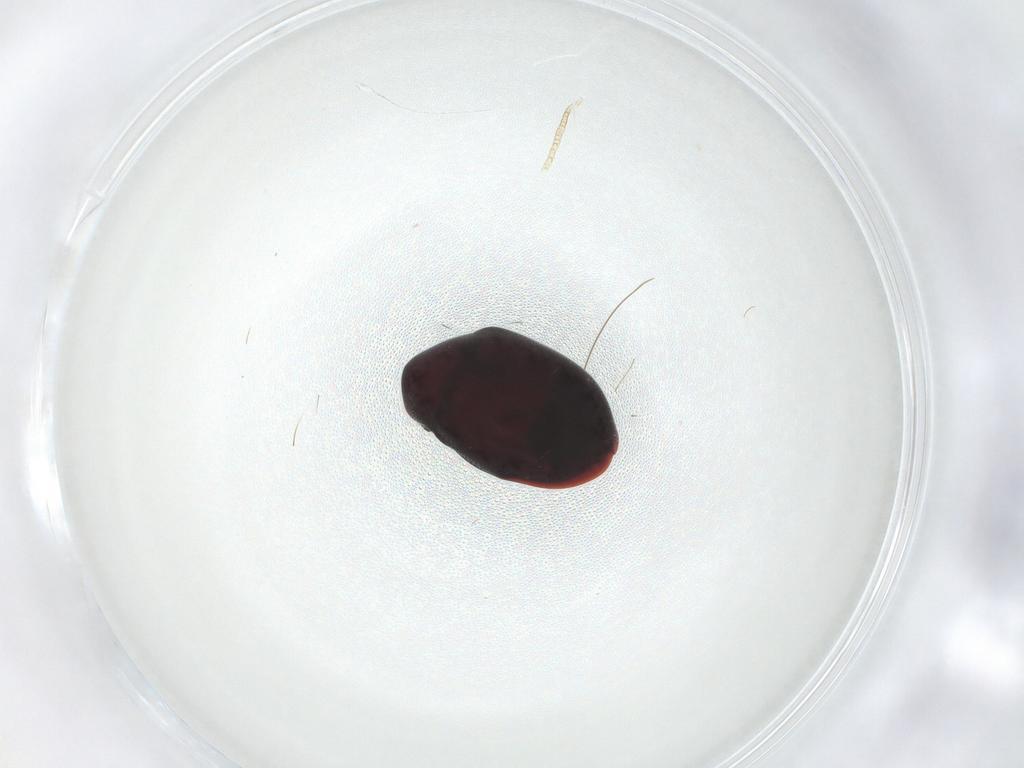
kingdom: Animalia
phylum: Arthropoda
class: Insecta
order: Coleoptera
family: Ptinidae
